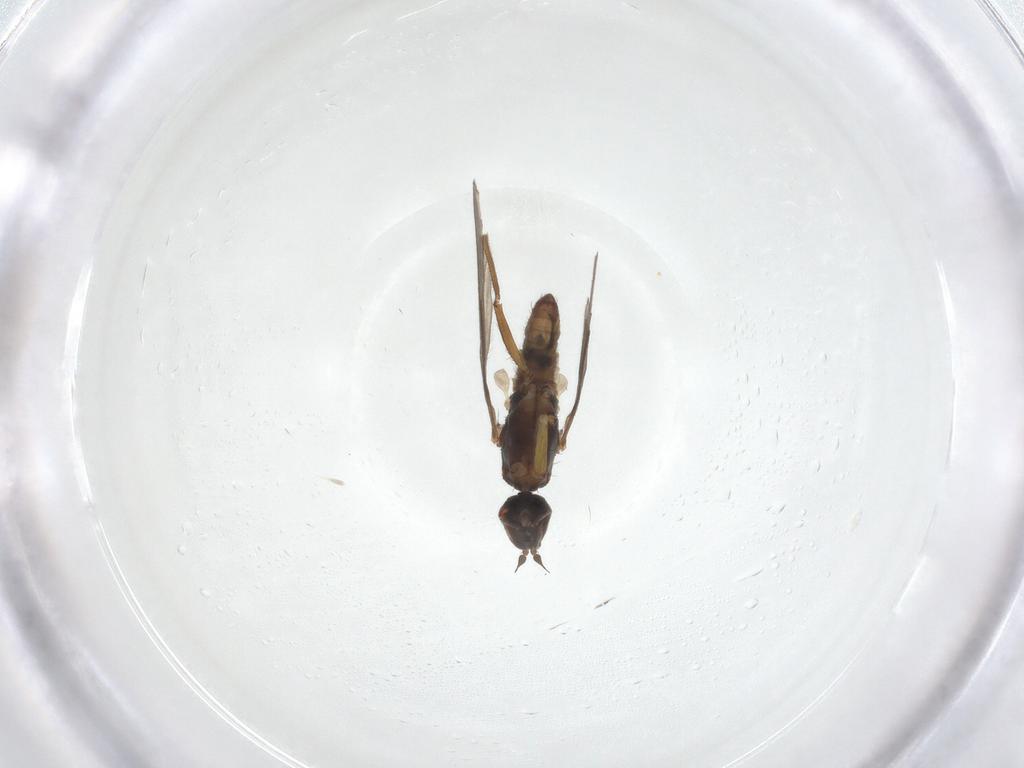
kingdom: Animalia
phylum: Arthropoda
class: Insecta
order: Diptera
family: Empididae
